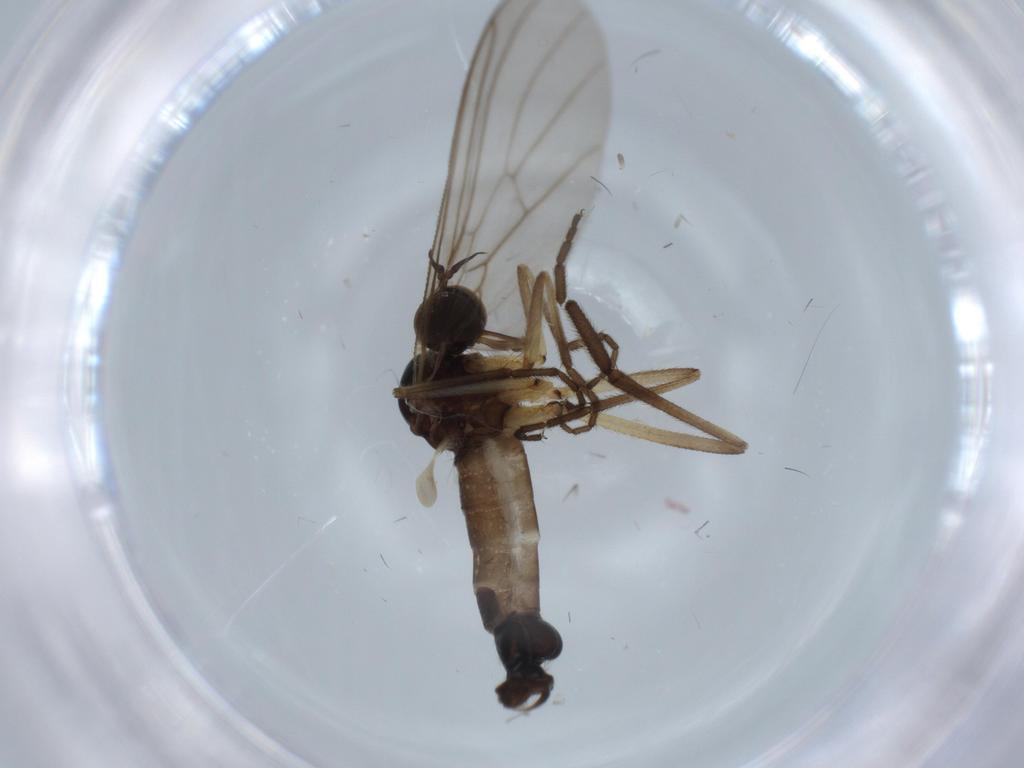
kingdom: Animalia
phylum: Arthropoda
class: Insecta
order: Diptera
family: Empididae
